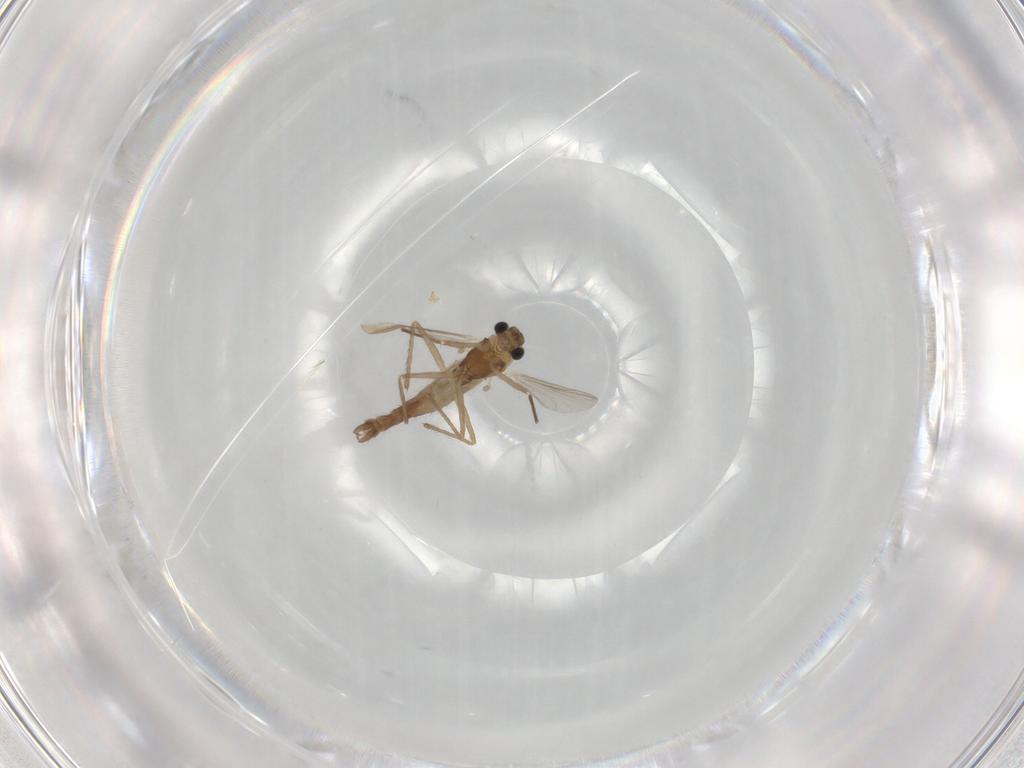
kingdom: Animalia
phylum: Arthropoda
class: Insecta
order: Diptera
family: Chironomidae
